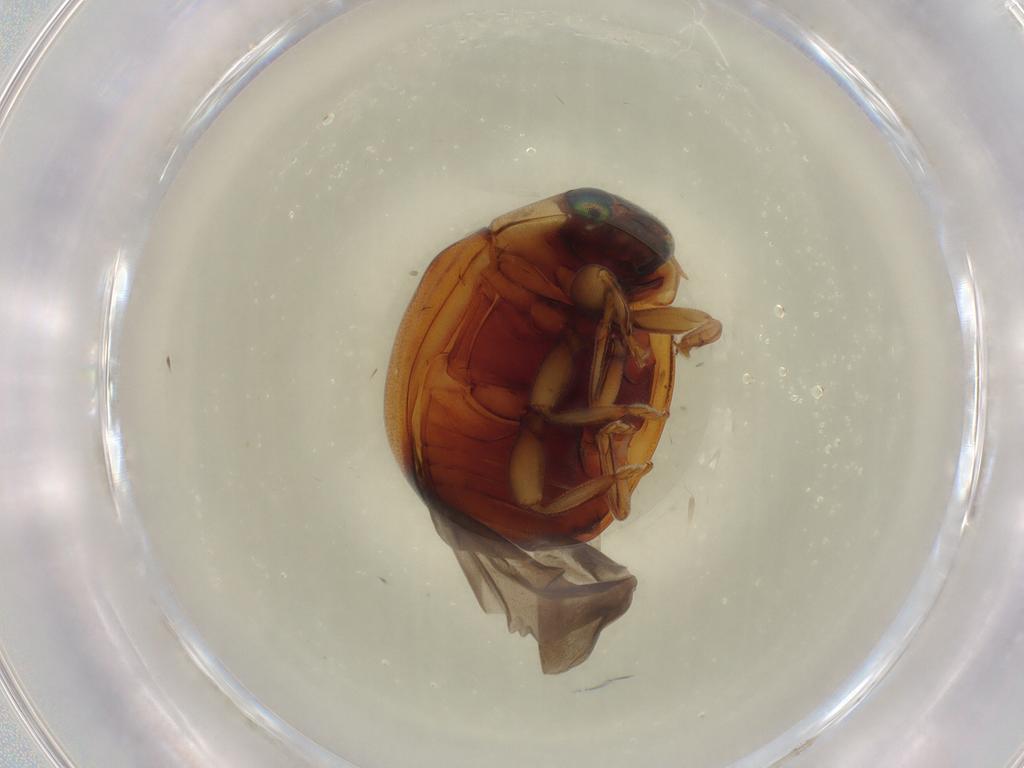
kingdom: Animalia
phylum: Arthropoda
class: Insecta
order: Coleoptera
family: Coccinellidae
